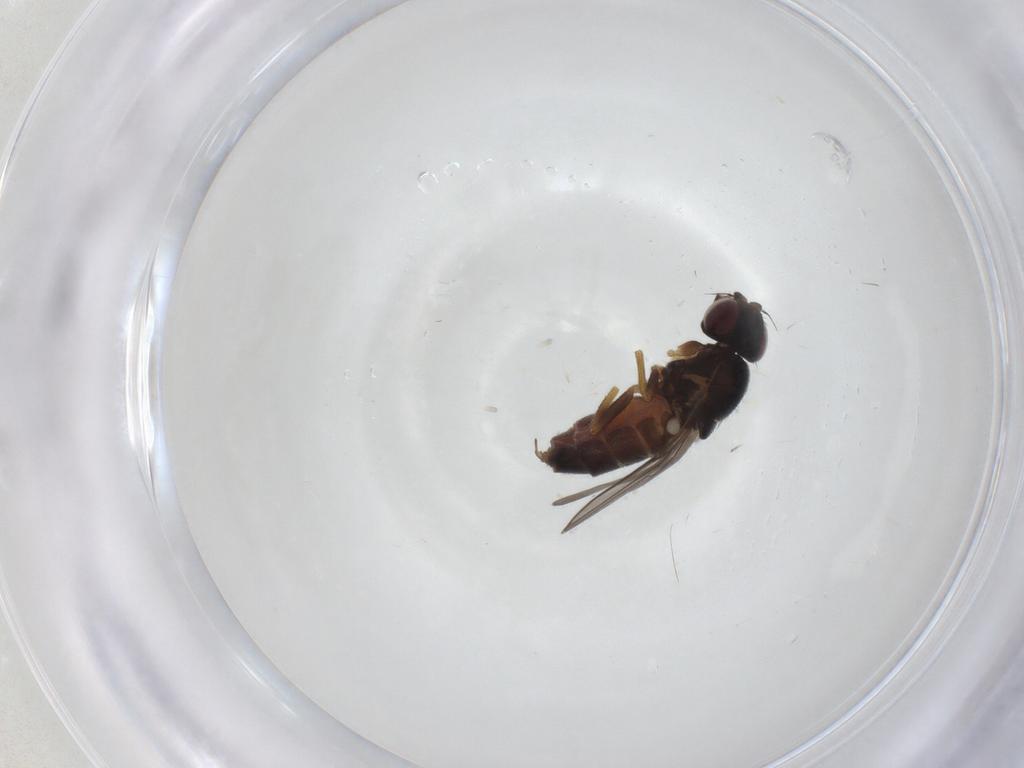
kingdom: Animalia
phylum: Arthropoda
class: Insecta
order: Diptera
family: Chloropidae
